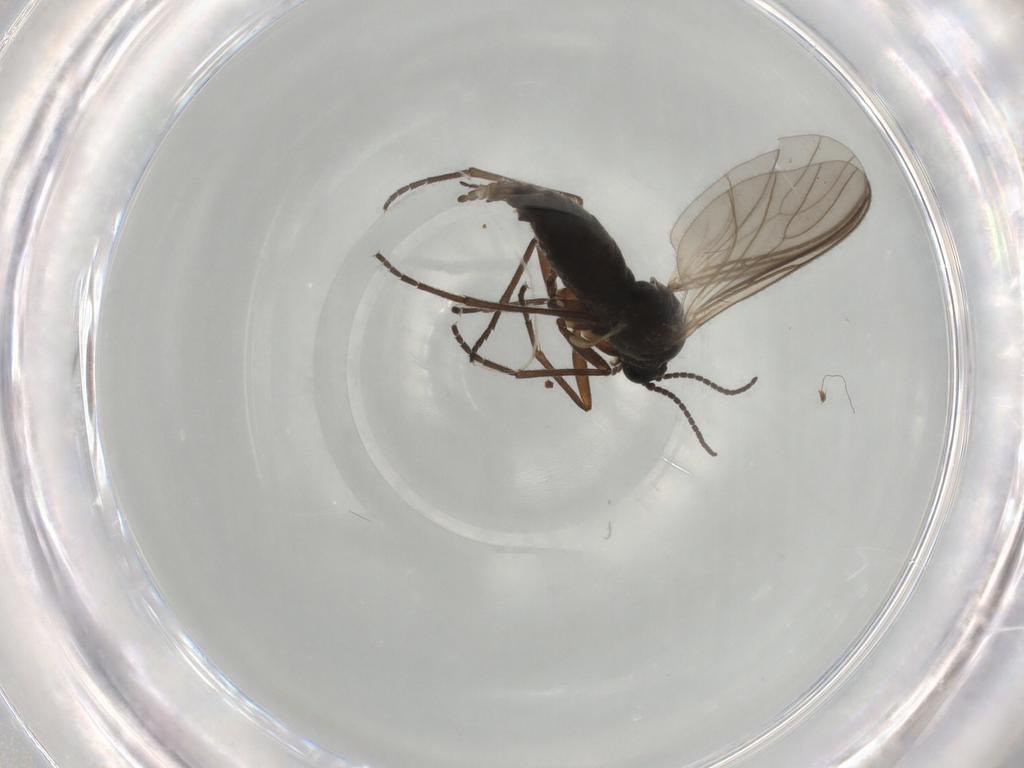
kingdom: Animalia
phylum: Arthropoda
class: Insecta
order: Diptera
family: Sciaridae
